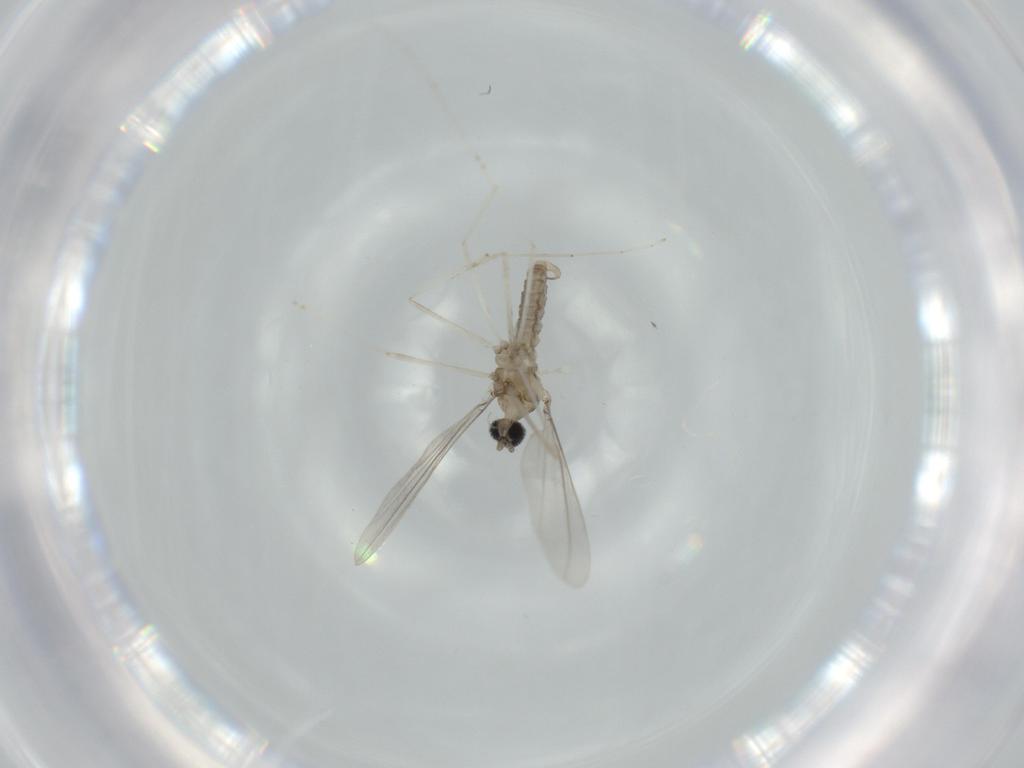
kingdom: Animalia
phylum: Arthropoda
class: Insecta
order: Diptera
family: Cecidomyiidae
